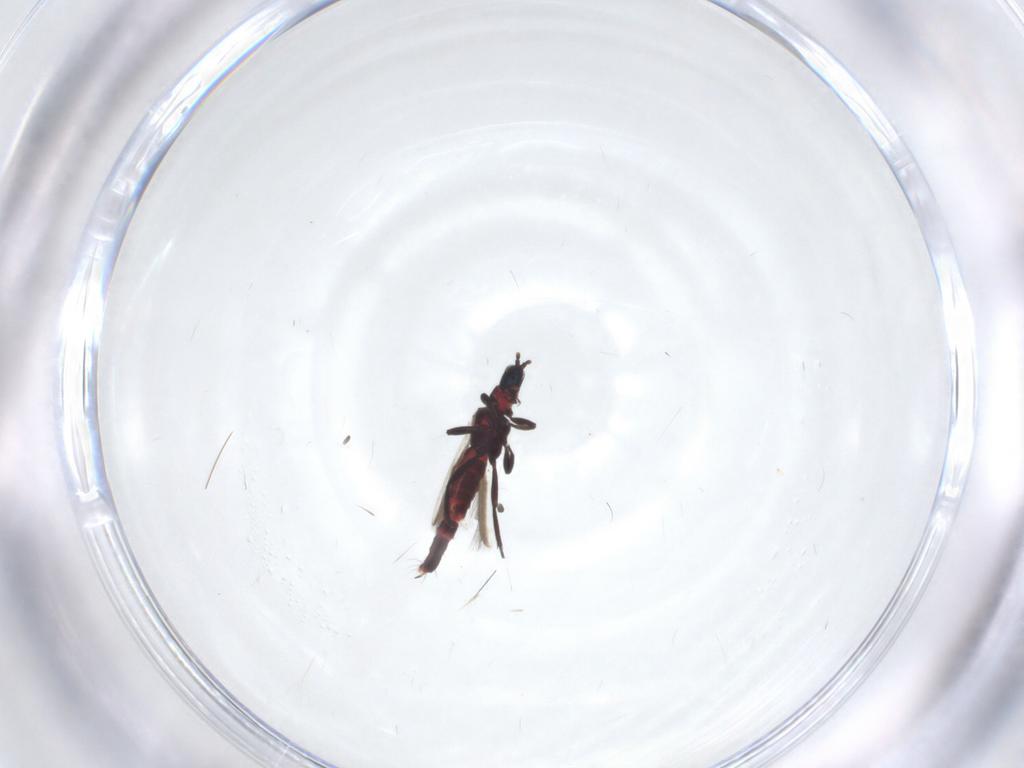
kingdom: Animalia
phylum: Arthropoda
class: Insecta
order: Thysanoptera
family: Aeolothripidae
